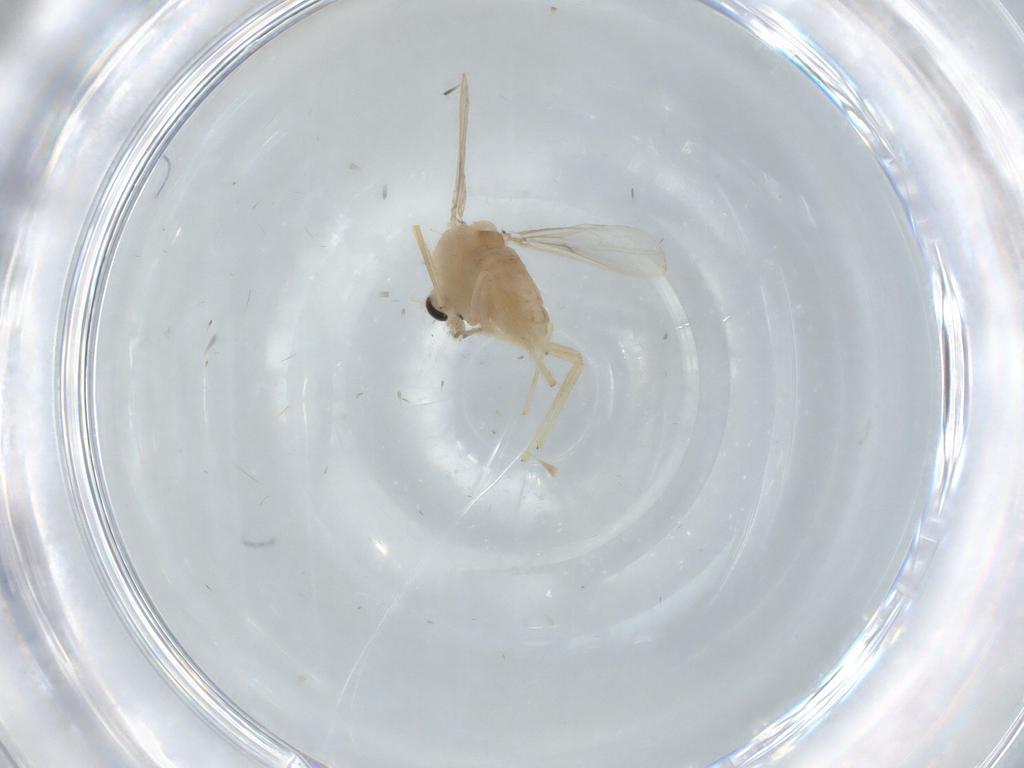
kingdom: Animalia
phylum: Arthropoda
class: Insecta
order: Diptera
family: Chironomidae
